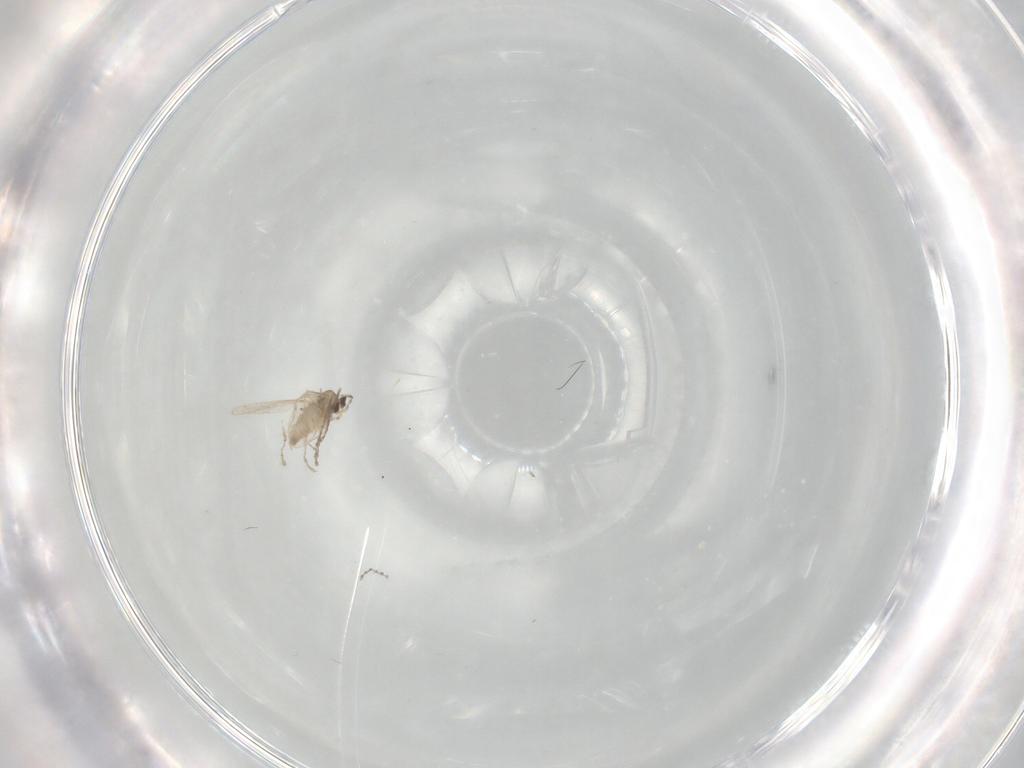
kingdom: Animalia
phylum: Arthropoda
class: Insecta
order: Diptera
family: Cecidomyiidae
